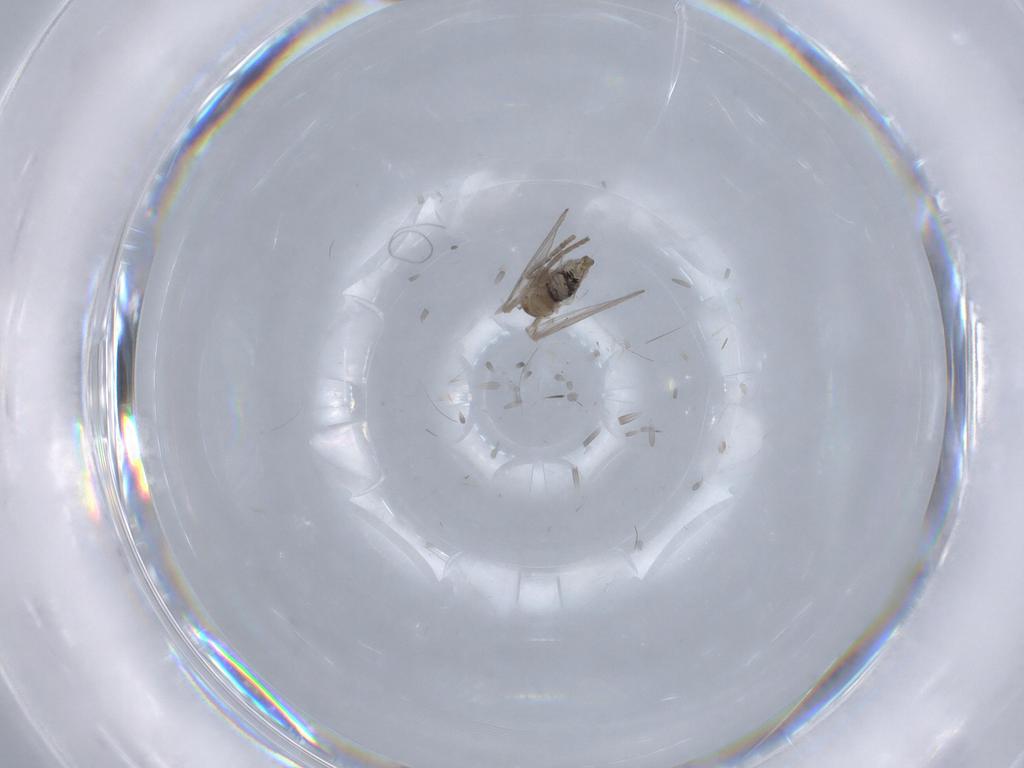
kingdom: Animalia
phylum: Arthropoda
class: Insecta
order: Diptera
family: Psychodidae
